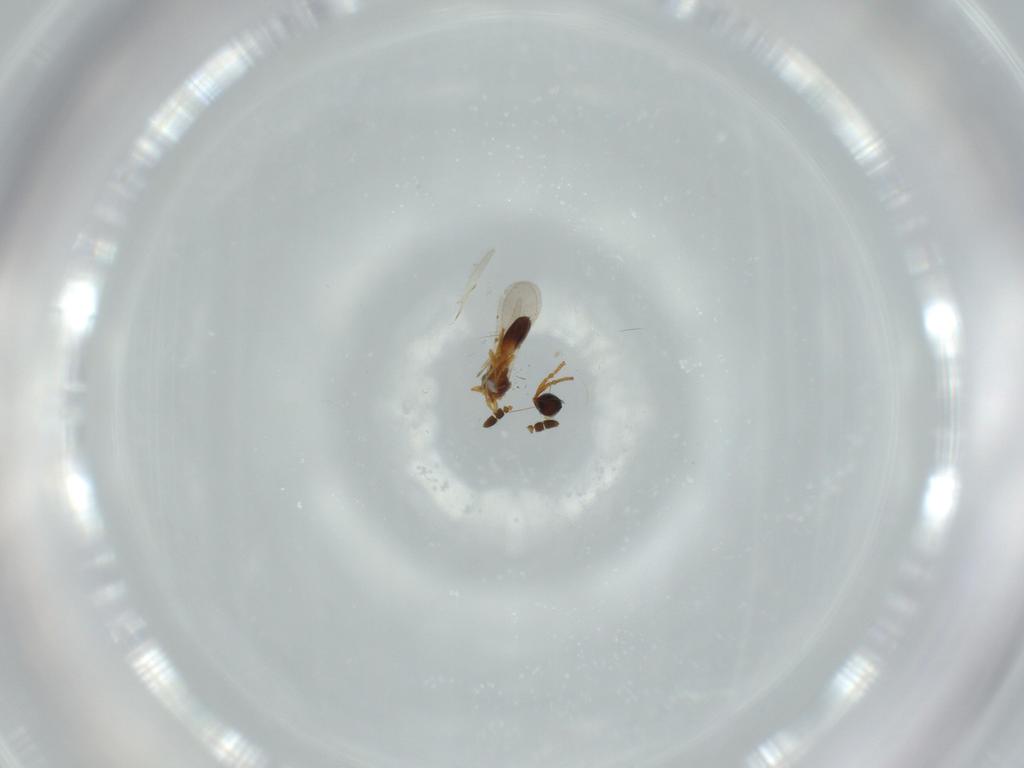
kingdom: Animalia
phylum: Arthropoda
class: Insecta
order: Hymenoptera
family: Diapriidae
